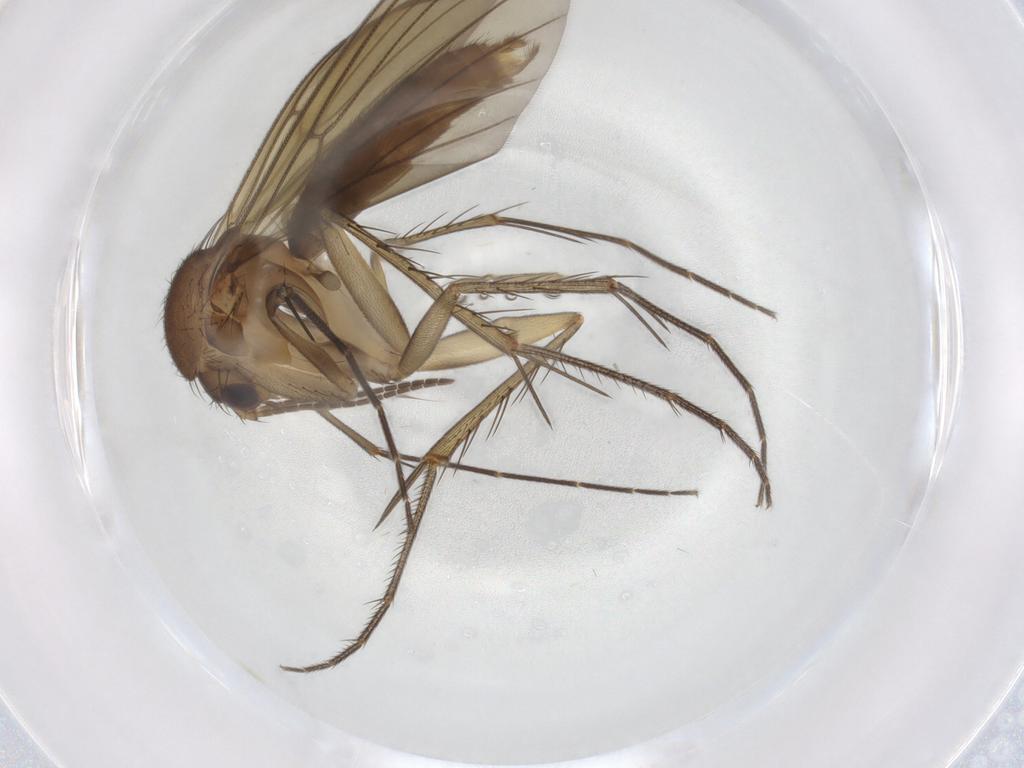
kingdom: Animalia
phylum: Arthropoda
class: Insecta
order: Diptera
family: Mycetophilidae
